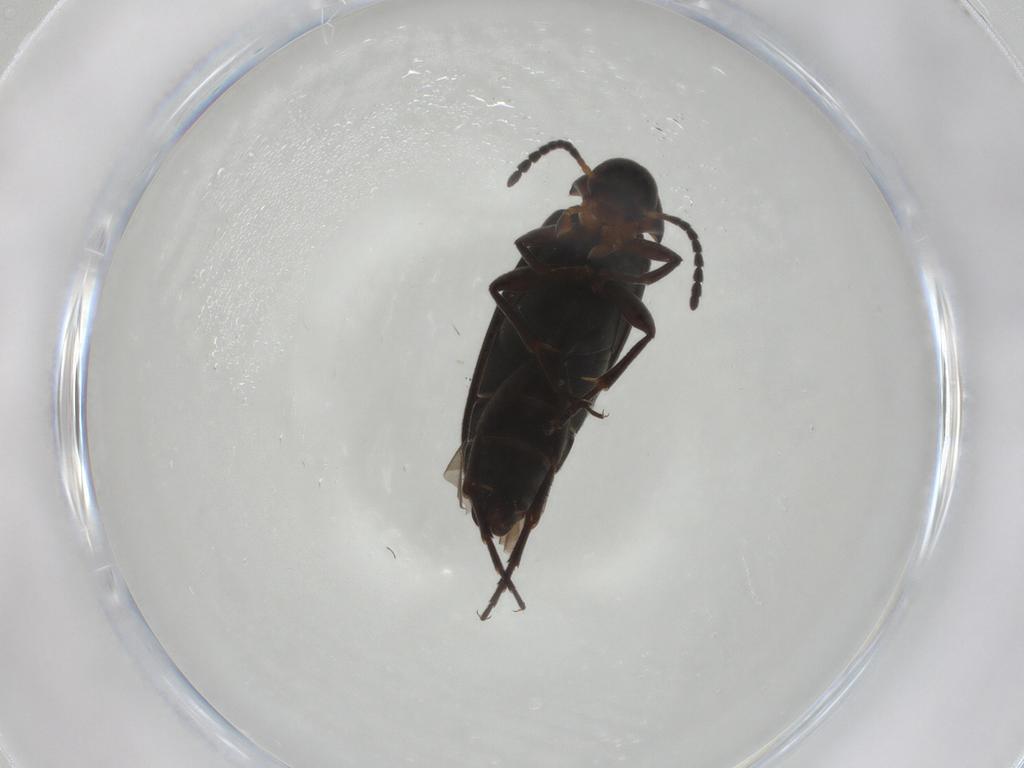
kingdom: Animalia
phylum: Arthropoda
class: Insecta
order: Coleoptera
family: Scraptiidae
